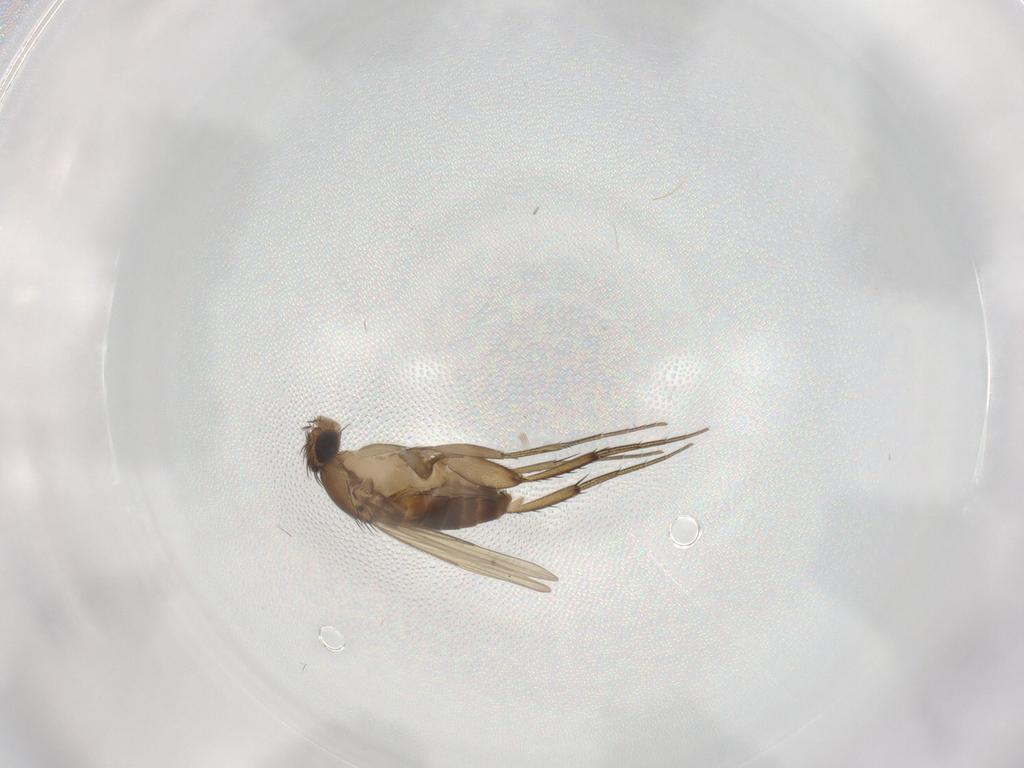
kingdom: Animalia
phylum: Arthropoda
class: Insecta
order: Diptera
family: Phoridae
